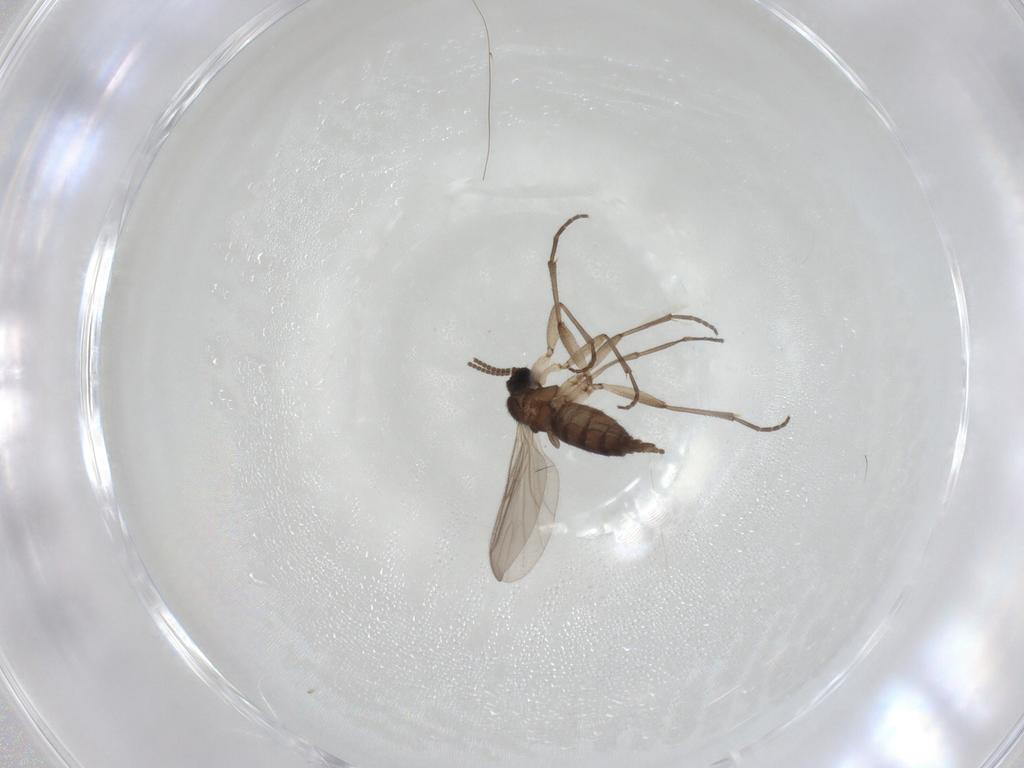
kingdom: Animalia
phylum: Arthropoda
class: Insecta
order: Diptera
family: Sciaridae
